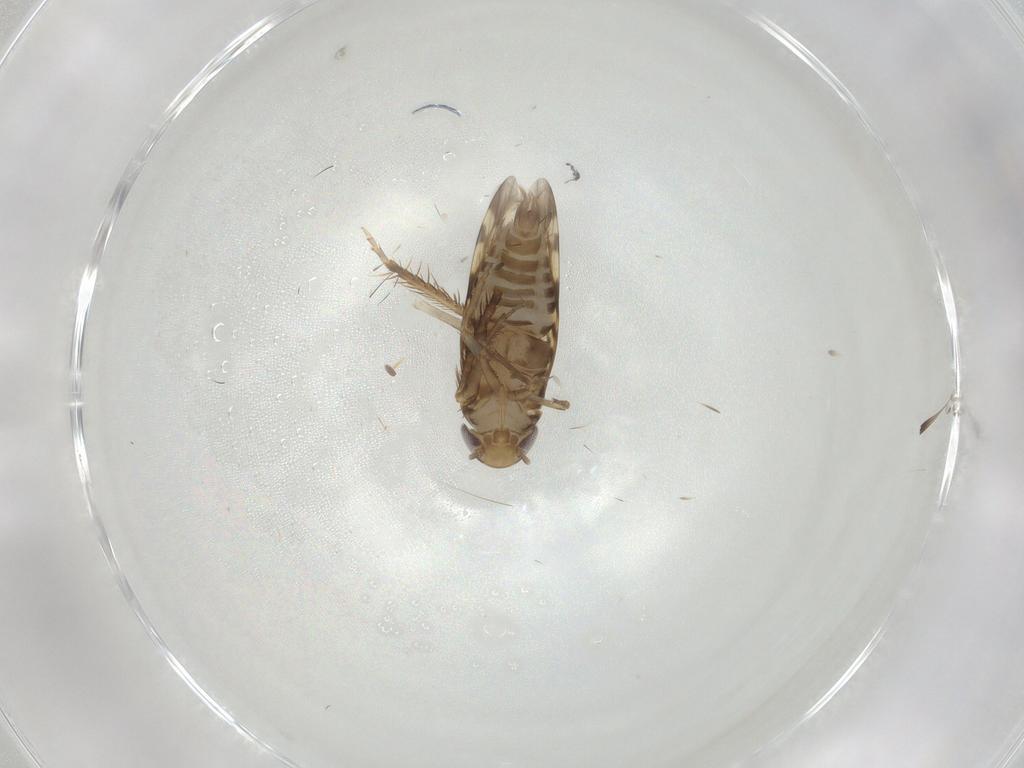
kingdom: Animalia
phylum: Arthropoda
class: Insecta
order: Hemiptera
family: Cicadellidae
